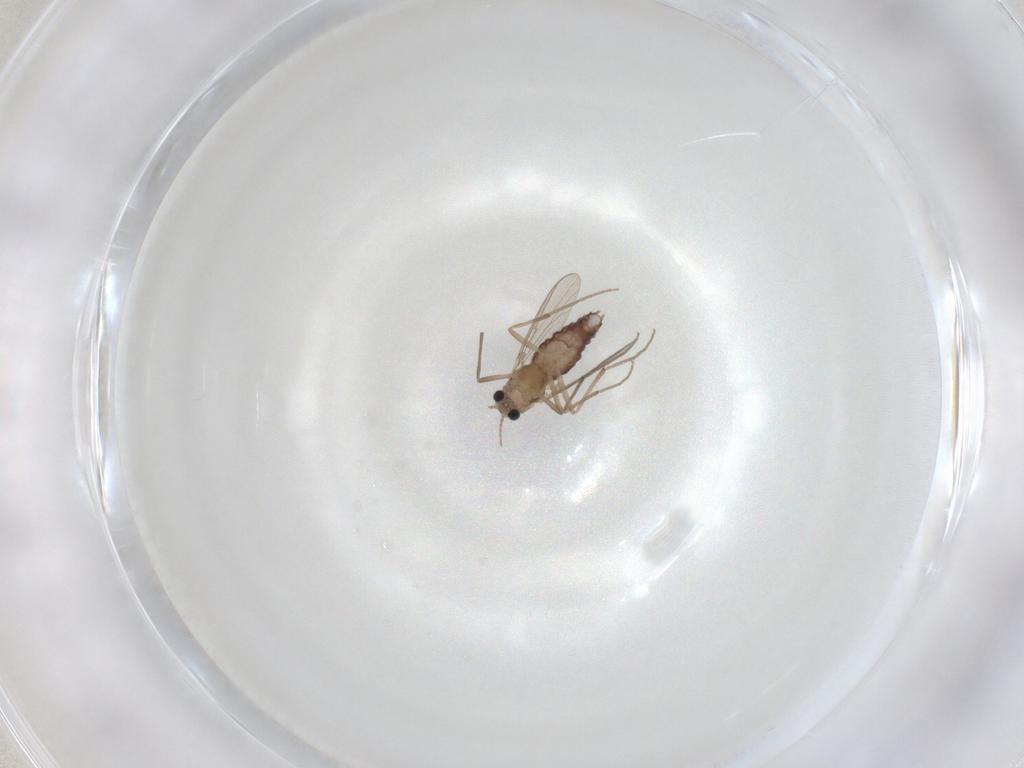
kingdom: Animalia
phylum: Arthropoda
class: Insecta
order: Diptera
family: Chironomidae
